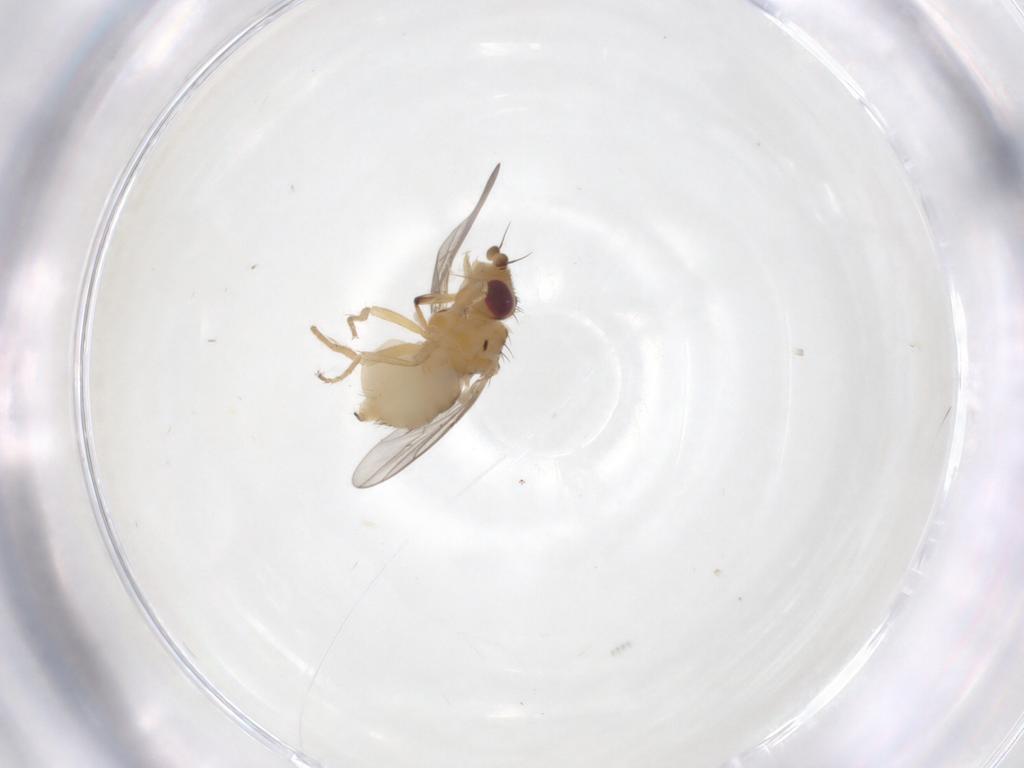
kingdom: Animalia
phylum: Arthropoda
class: Insecta
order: Diptera
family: Chloropidae
